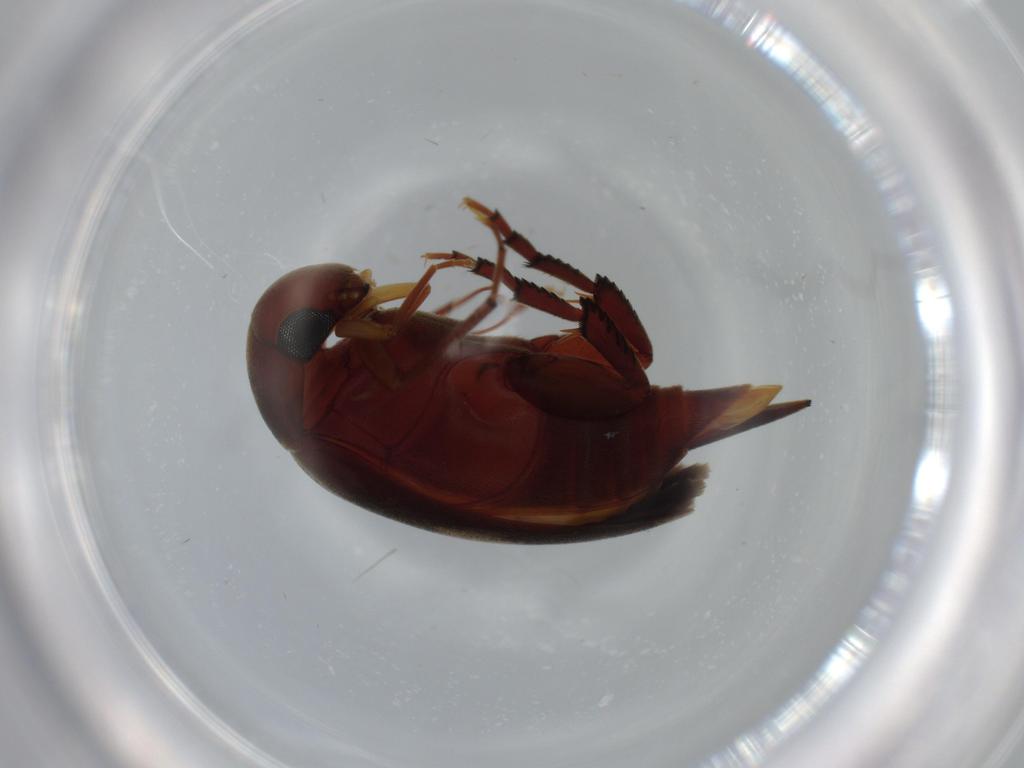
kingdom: Animalia
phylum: Arthropoda
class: Insecta
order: Coleoptera
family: Mordellidae
